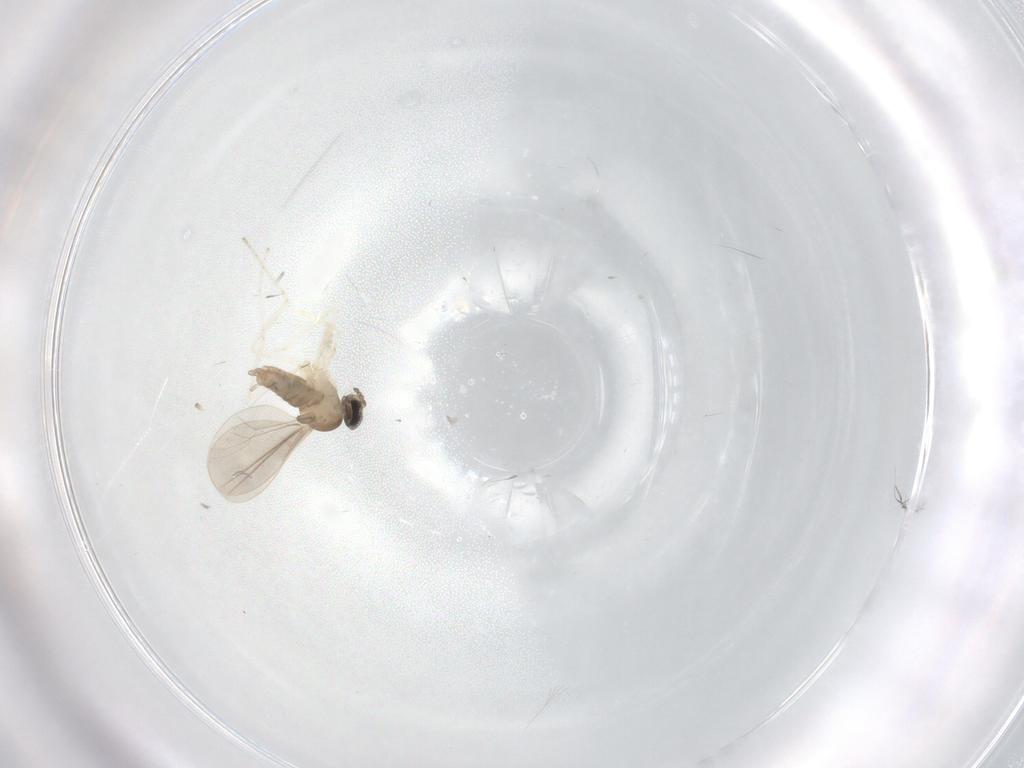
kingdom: Animalia
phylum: Arthropoda
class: Insecta
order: Diptera
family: Cecidomyiidae
